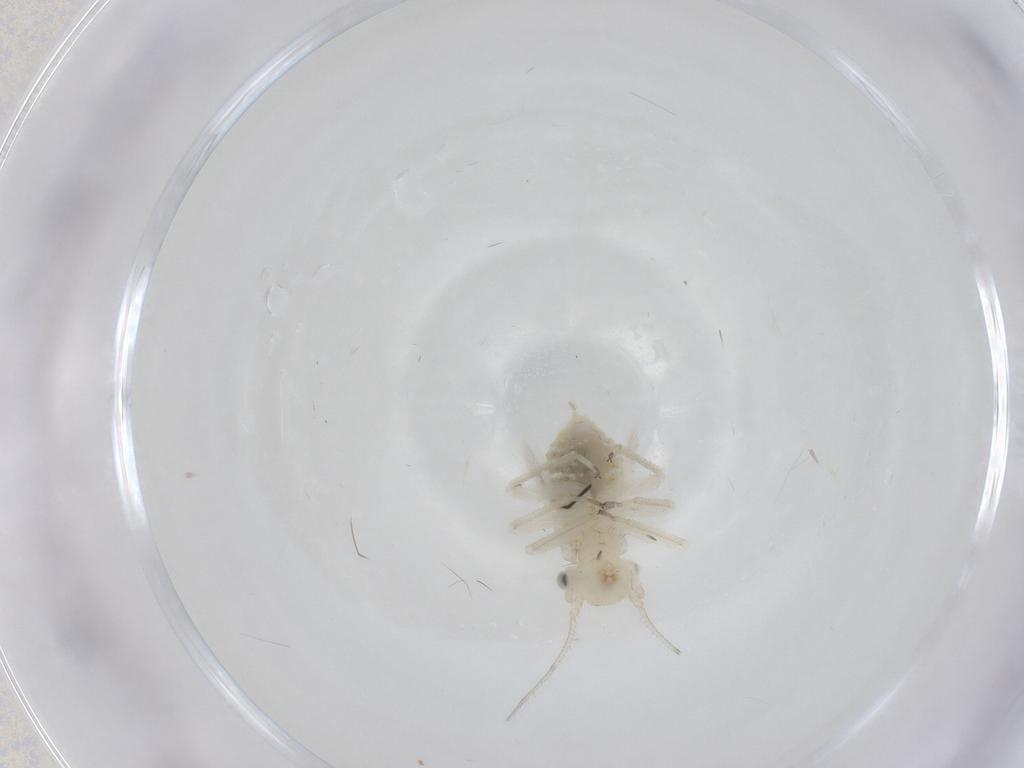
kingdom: Animalia
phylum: Arthropoda
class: Insecta
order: Psocodea
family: Elipsocidae
